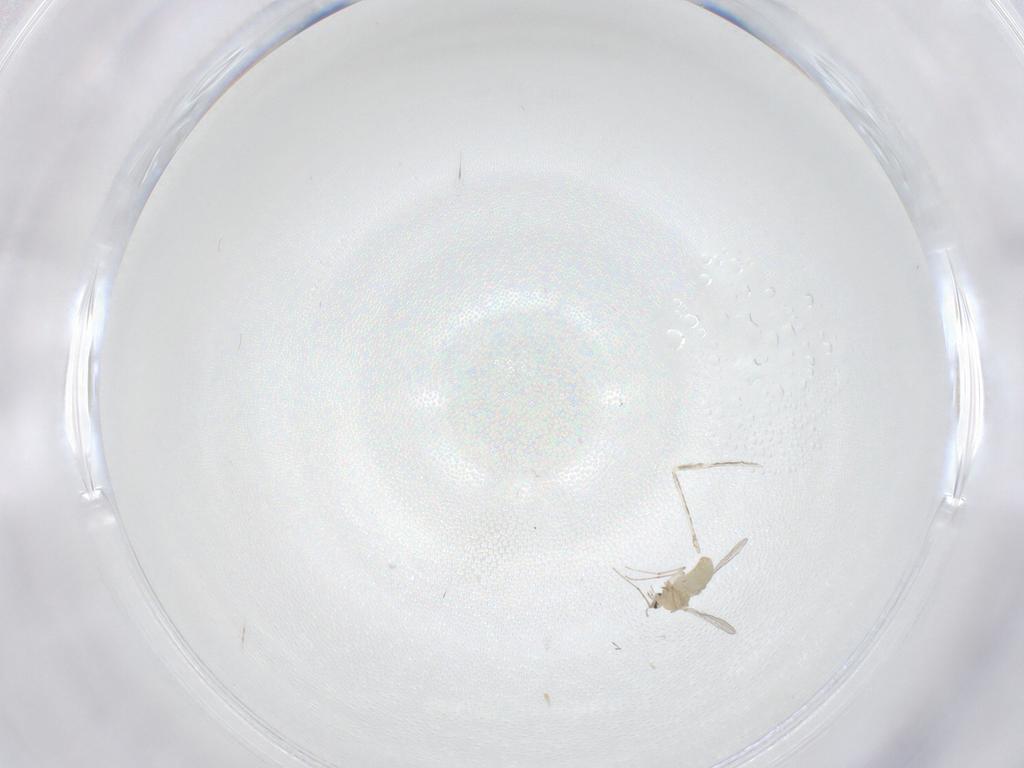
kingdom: Animalia
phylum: Arthropoda
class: Insecta
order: Diptera
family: Chironomidae
